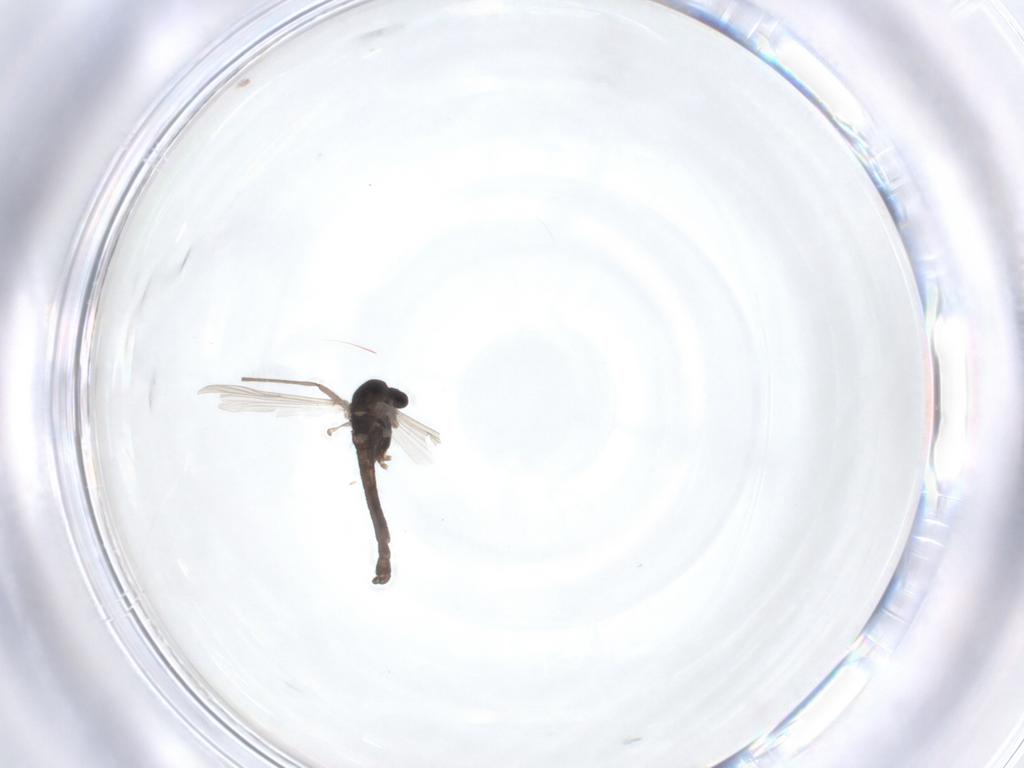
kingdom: Animalia
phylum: Arthropoda
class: Insecta
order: Diptera
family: Chironomidae
